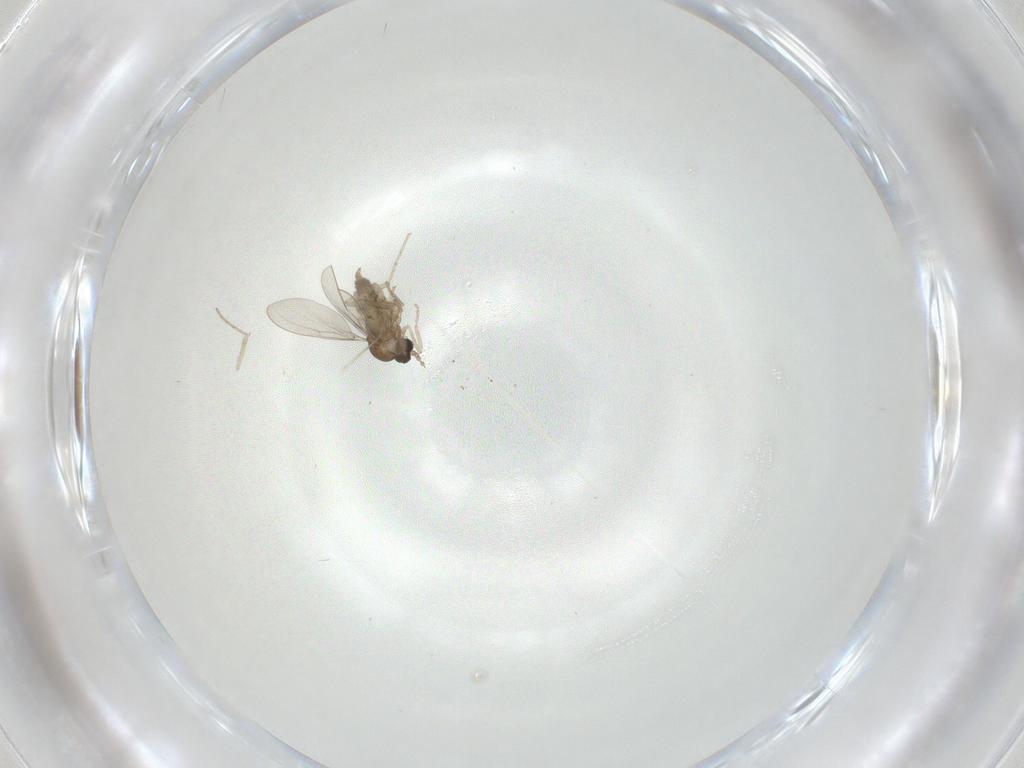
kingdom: Animalia
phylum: Arthropoda
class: Insecta
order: Diptera
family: Cecidomyiidae
